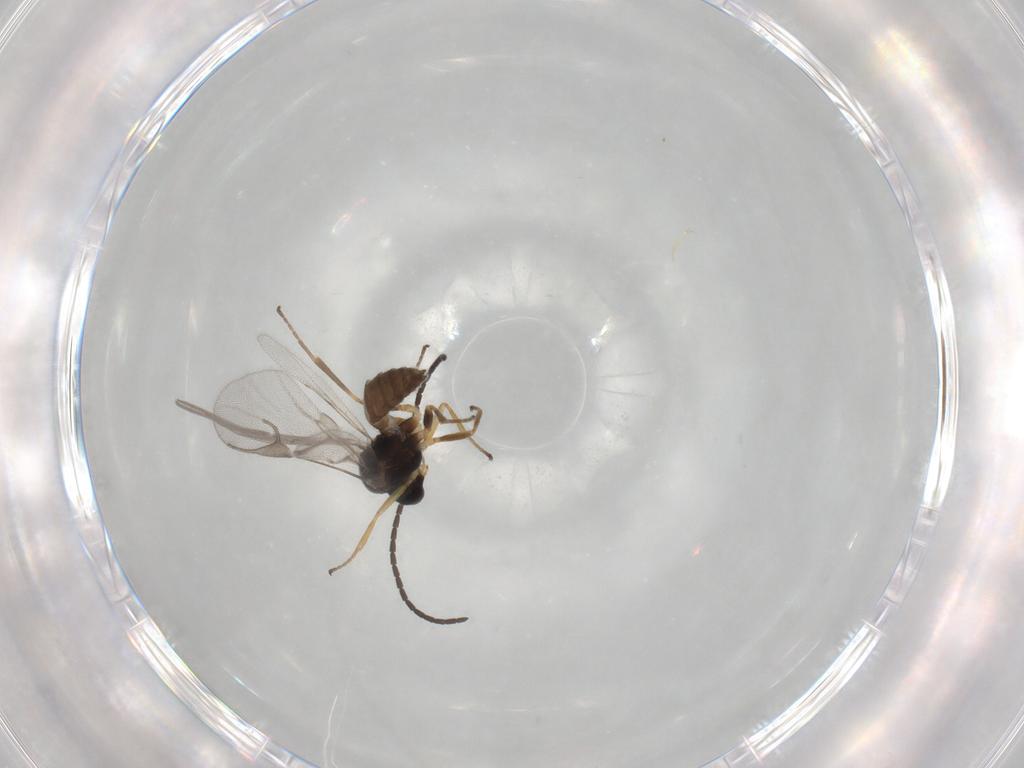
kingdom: Animalia
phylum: Arthropoda
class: Insecta
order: Hymenoptera
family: Braconidae
